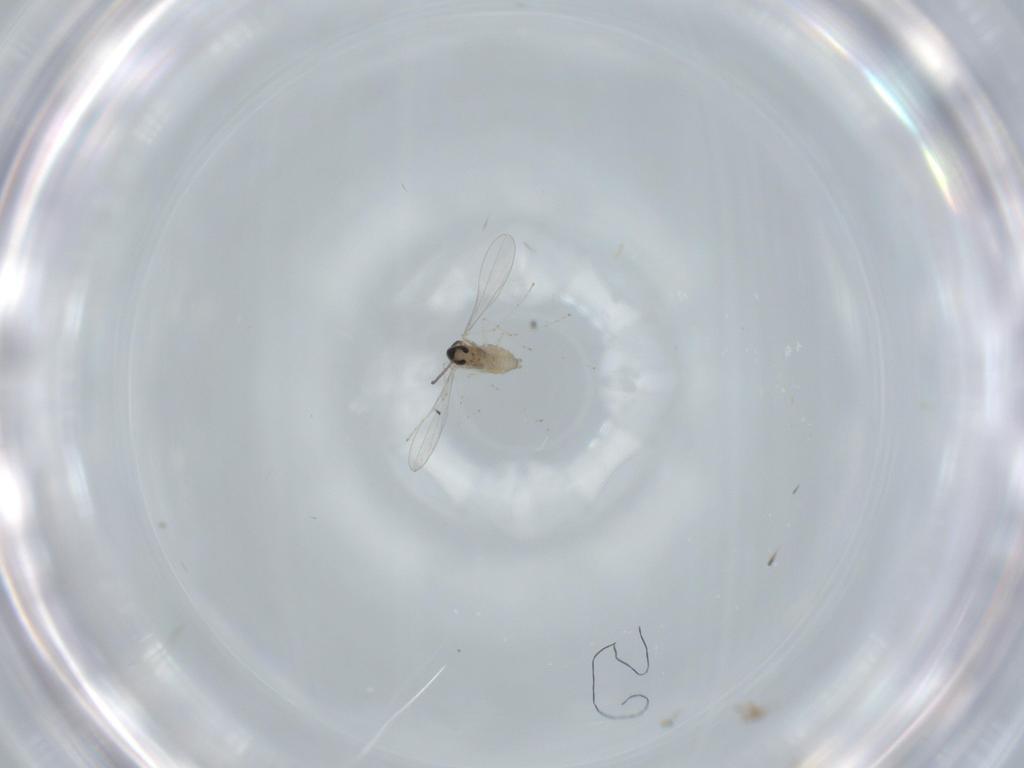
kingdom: Animalia
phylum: Arthropoda
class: Insecta
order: Diptera
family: Cecidomyiidae
